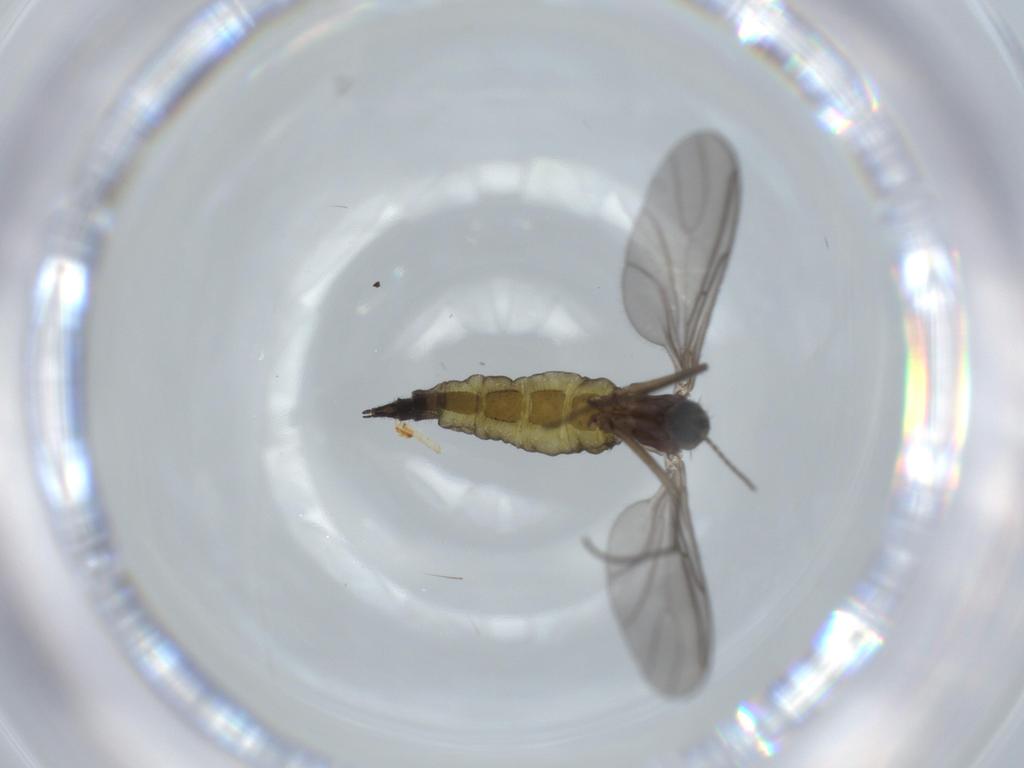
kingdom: Animalia
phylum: Arthropoda
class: Insecta
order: Diptera
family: Sciaridae
